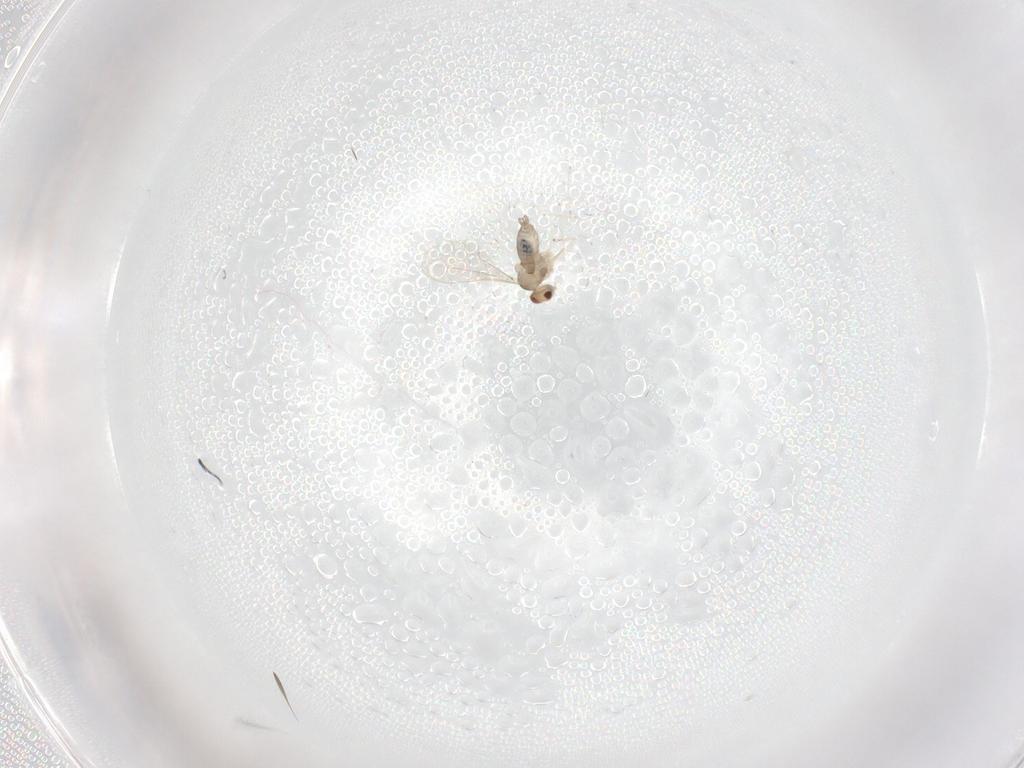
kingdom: Animalia
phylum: Arthropoda
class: Insecta
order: Diptera
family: Cecidomyiidae
